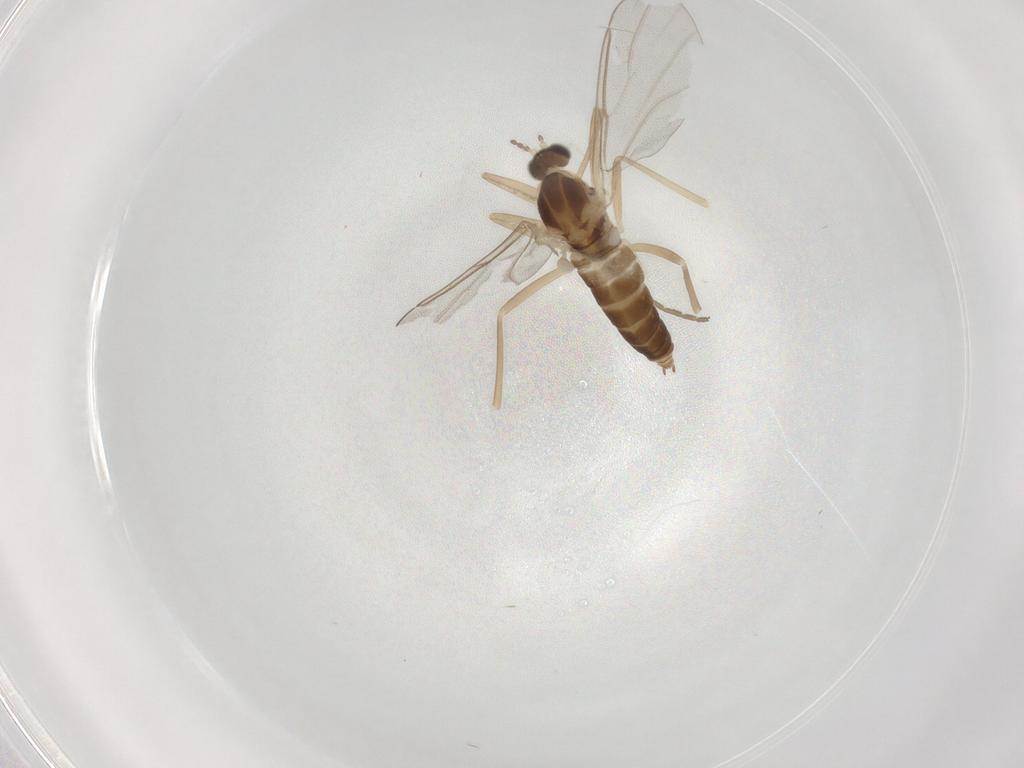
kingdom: Animalia
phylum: Arthropoda
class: Insecta
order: Diptera
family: Cecidomyiidae
